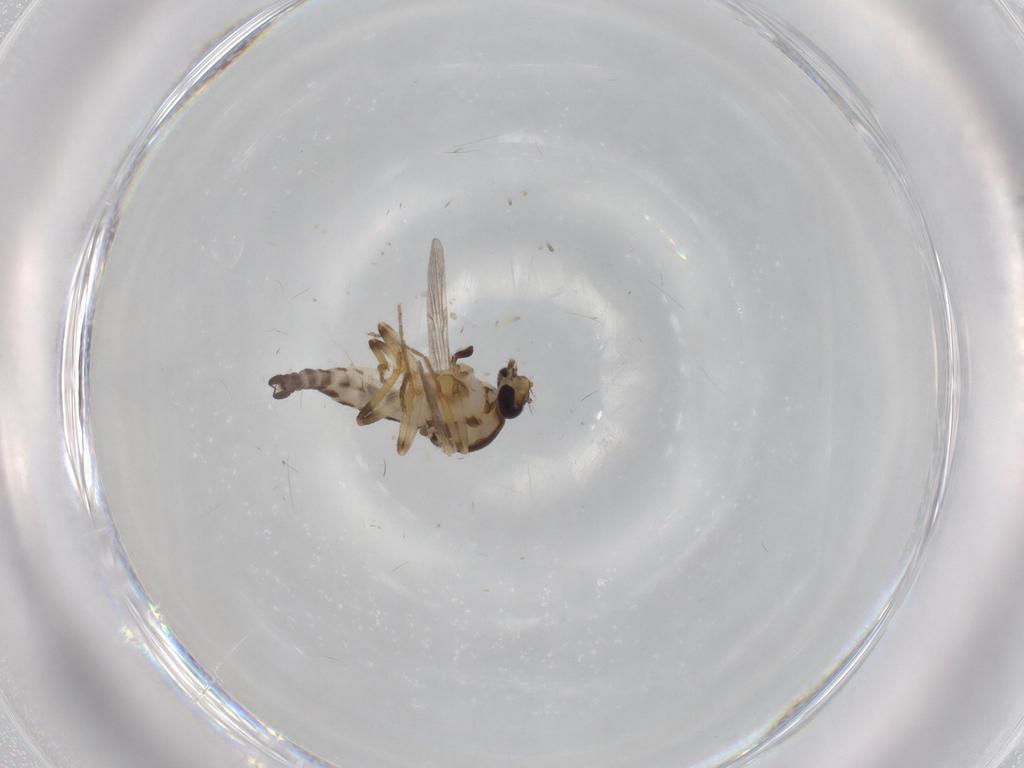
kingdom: Animalia
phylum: Arthropoda
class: Insecta
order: Diptera
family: Ceratopogonidae
